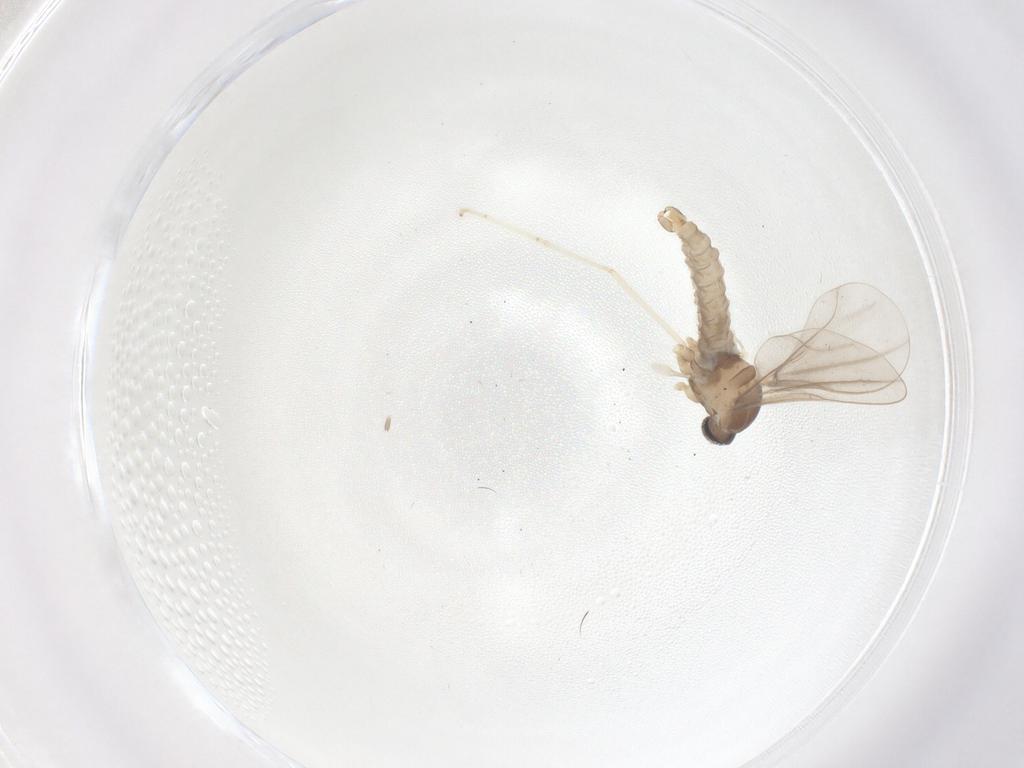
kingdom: Animalia
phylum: Arthropoda
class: Insecta
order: Diptera
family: Cecidomyiidae
